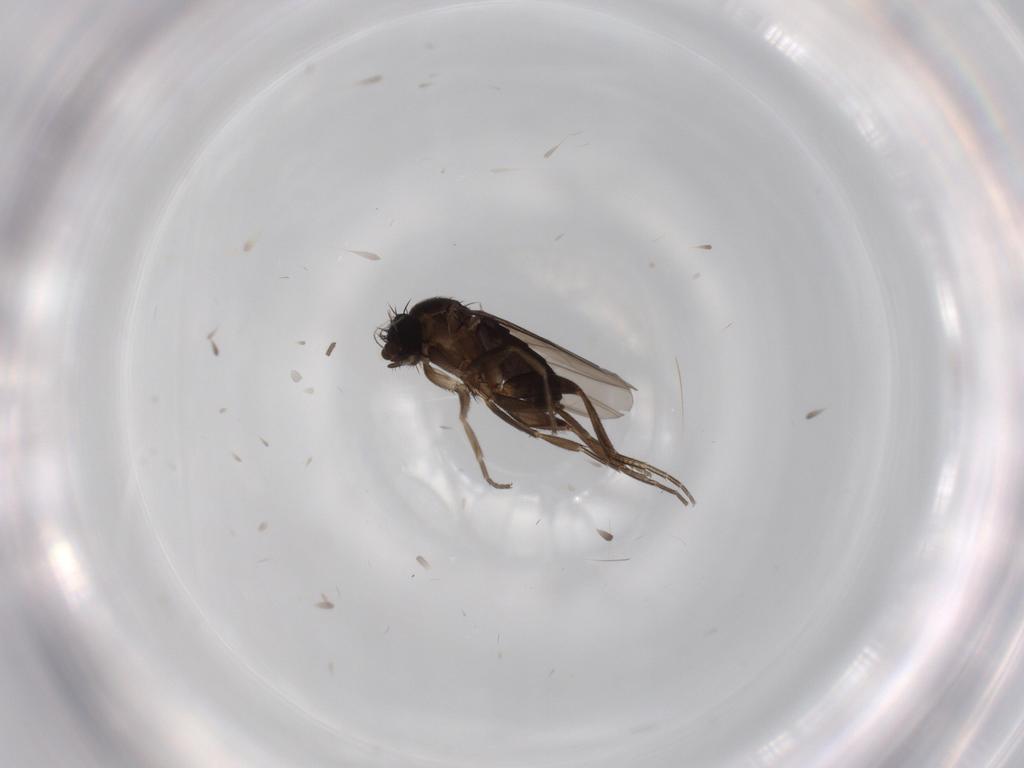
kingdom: Animalia
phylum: Arthropoda
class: Insecta
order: Diptera
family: Phoridae
